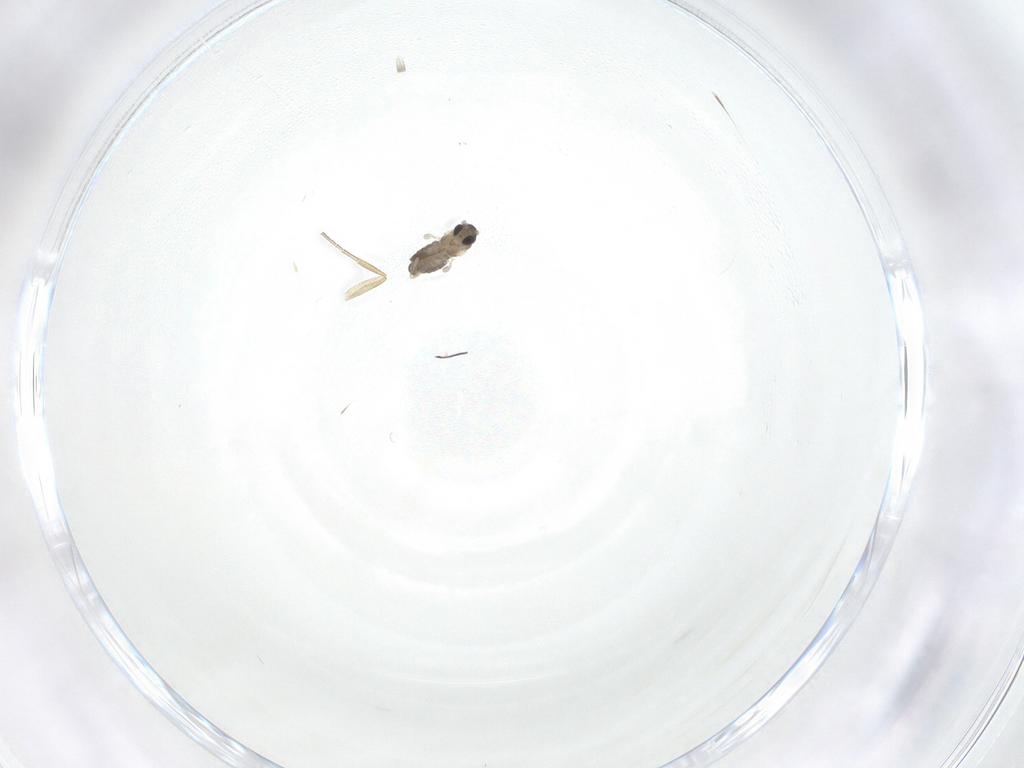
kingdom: Animalia
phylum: Arthropoda
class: Insecta
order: Diptera
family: Cecidomyiidae
